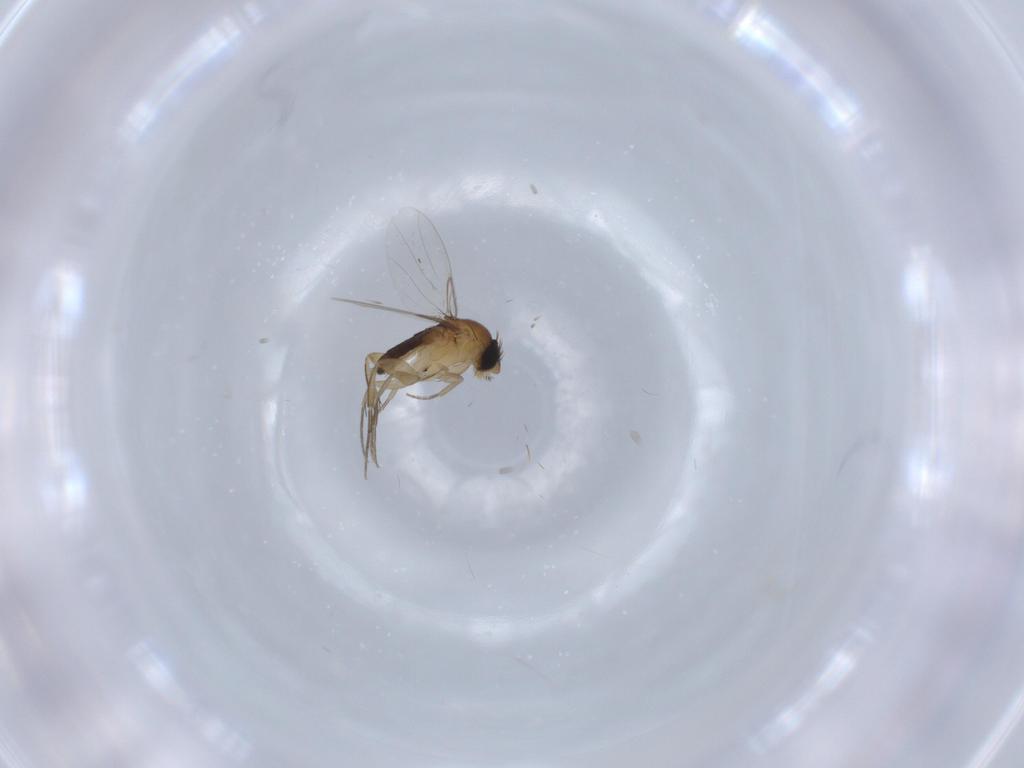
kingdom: Animalia
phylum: Arthropoda
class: Insecta
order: Diptera
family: Phoridae
